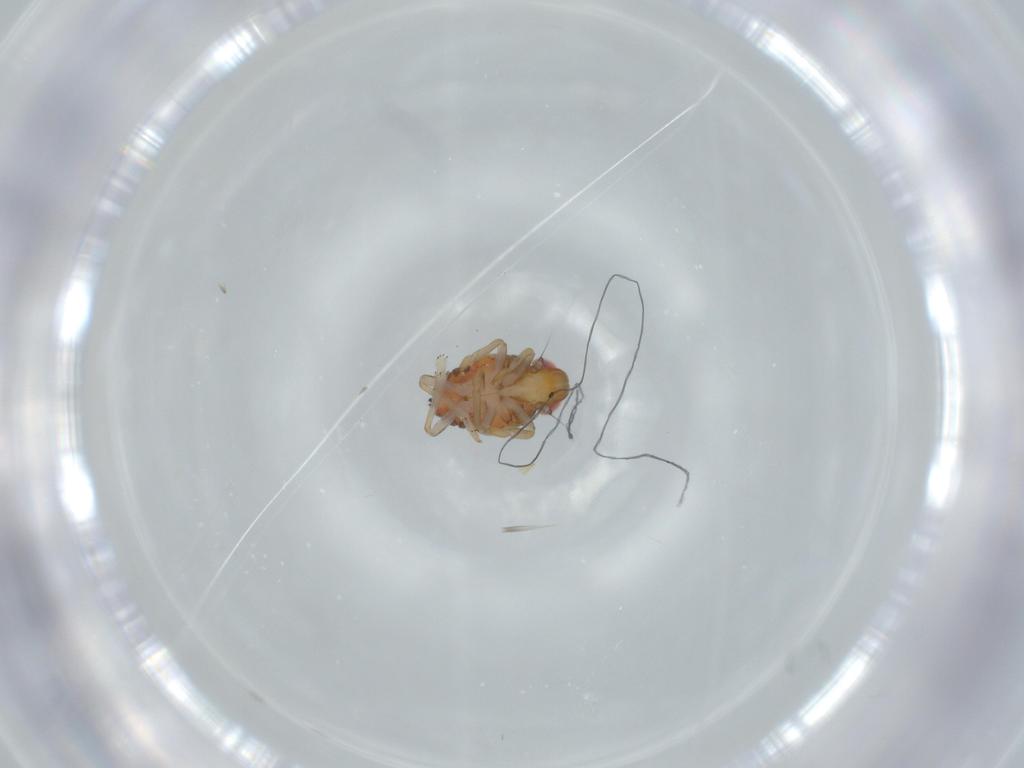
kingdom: Animalia
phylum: Arthropoda
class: Insecta
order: Hemiptera
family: Issidae
